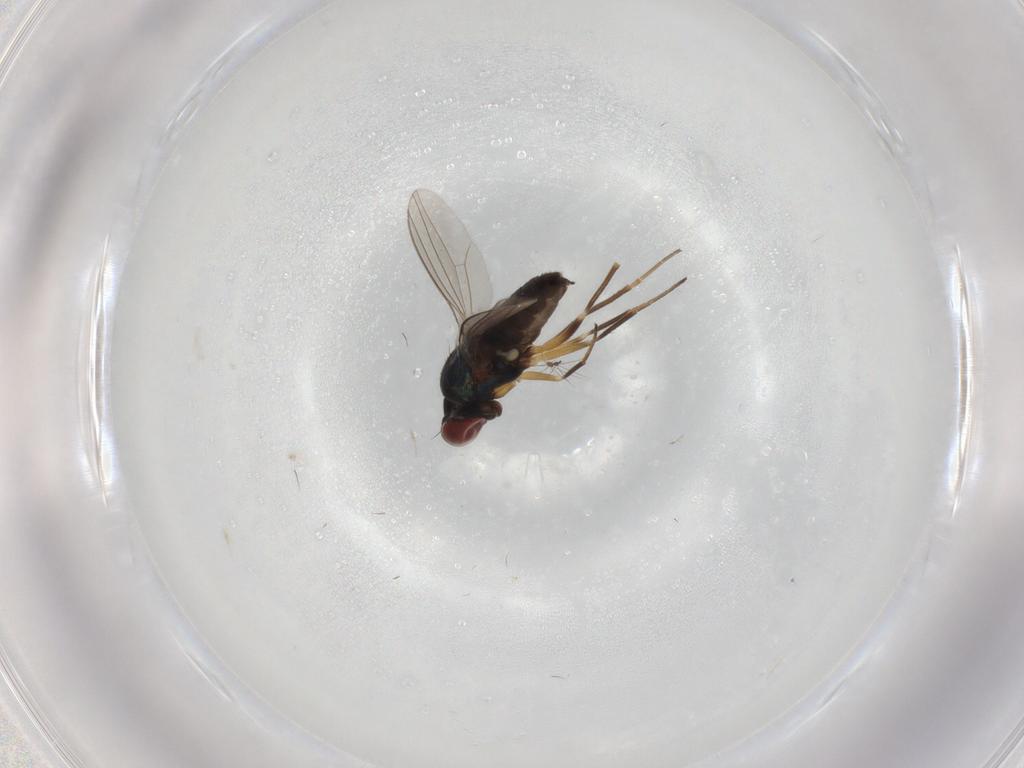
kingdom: Animalia
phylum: Arthropoda
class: Insecta
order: Diptera
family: Dolichopodidae
